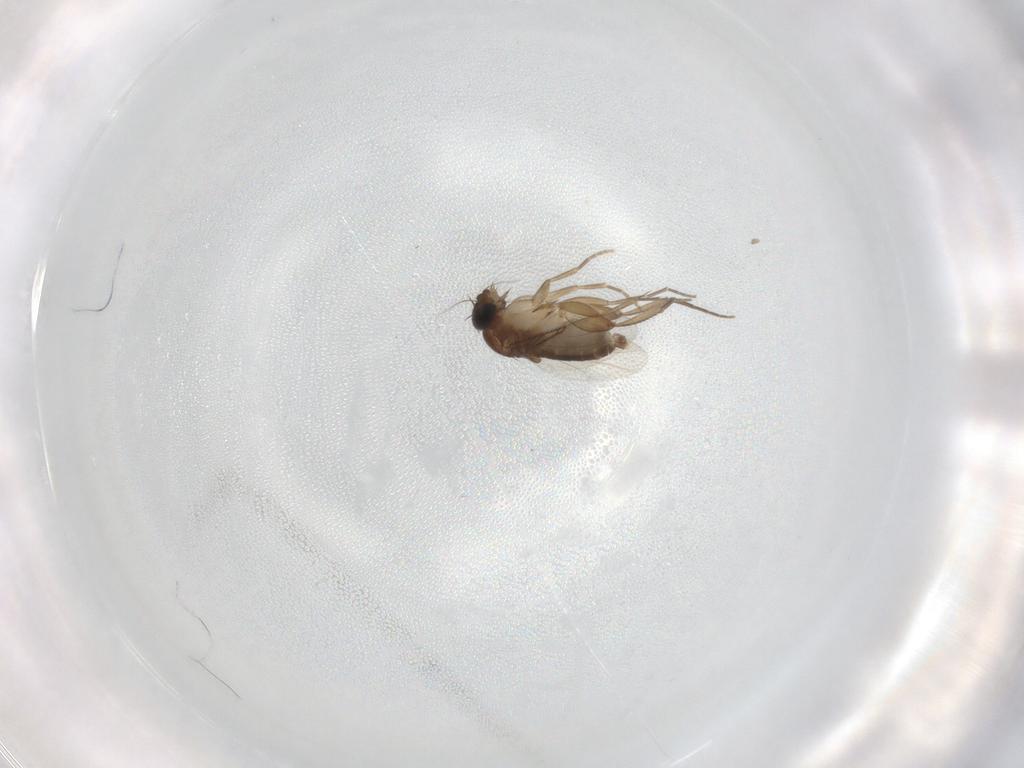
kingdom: Animalia
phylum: Arthropoda
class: Insecta
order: Diptera
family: Phoridae
